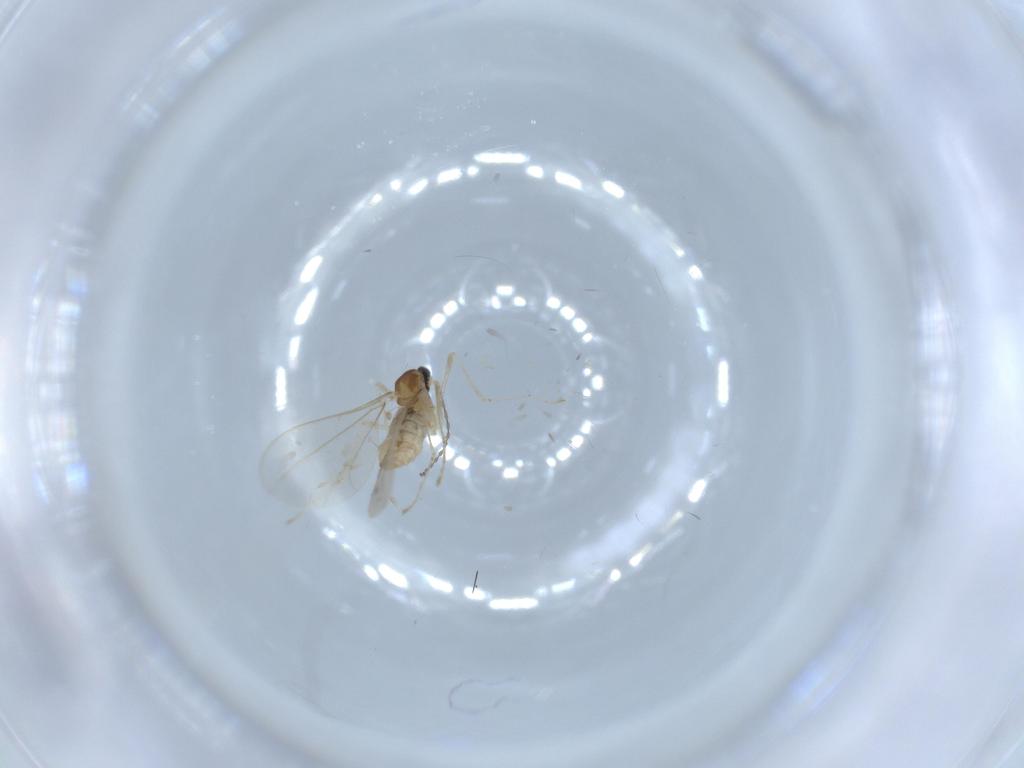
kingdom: Animalia
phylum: Arthropoda
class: Insecta
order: Diptera
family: Cecidomyiidae
